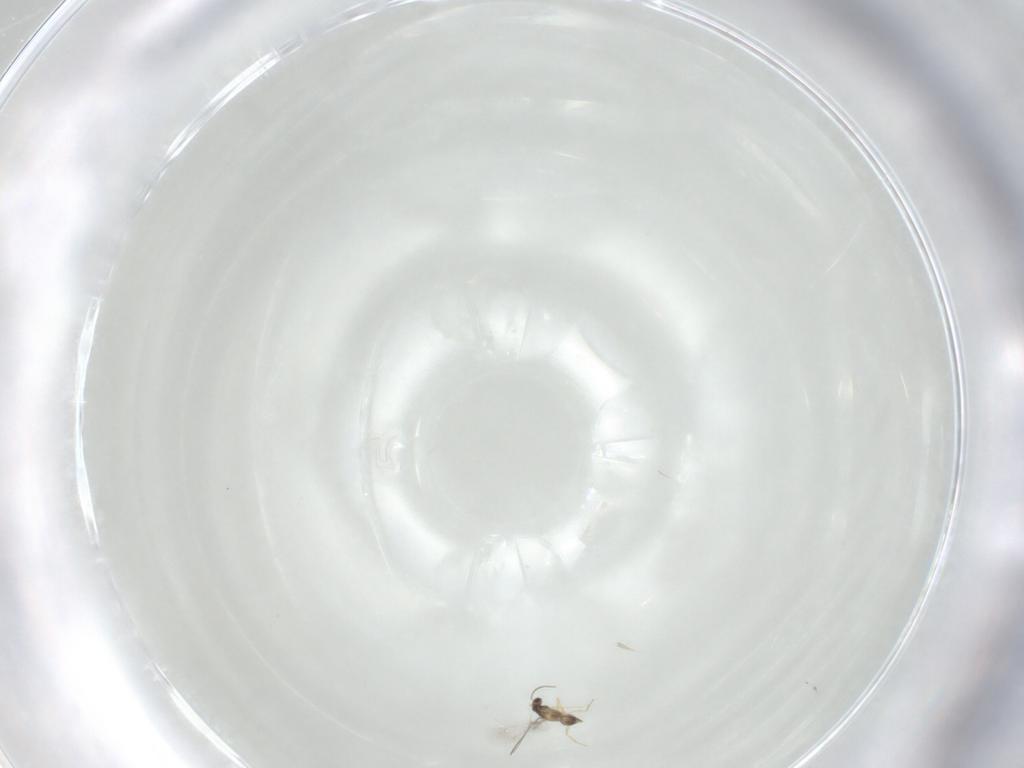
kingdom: Animalia
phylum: Arthropoda
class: Insecta
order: Hymenoptera
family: Mymaridae
